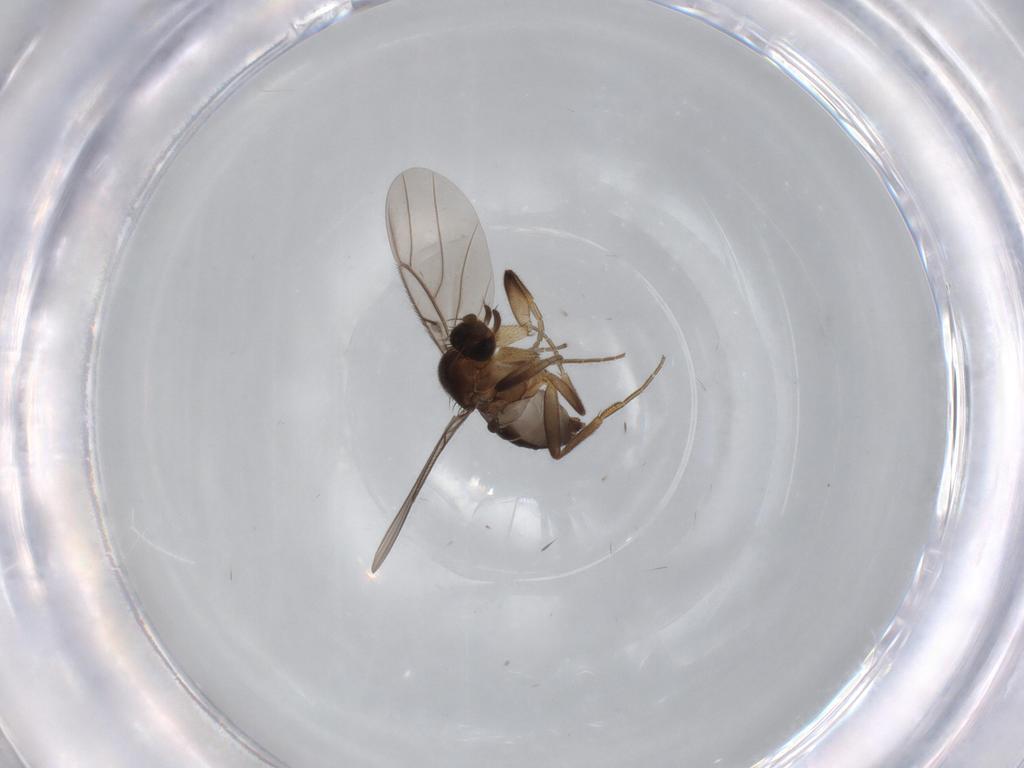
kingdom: Animalia
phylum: Arthropoda
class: Insecta
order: Diptera
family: Phoridae
